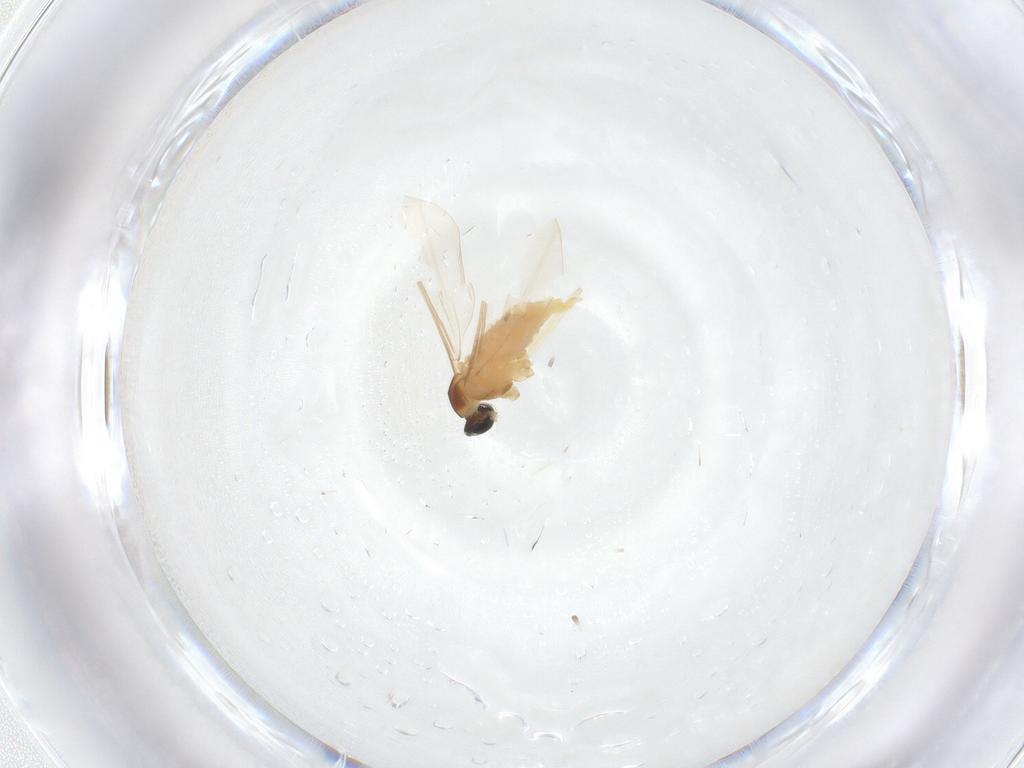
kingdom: Animalia
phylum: Arthropoda
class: Insecta
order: Diptera
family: Cecidomyiidae
